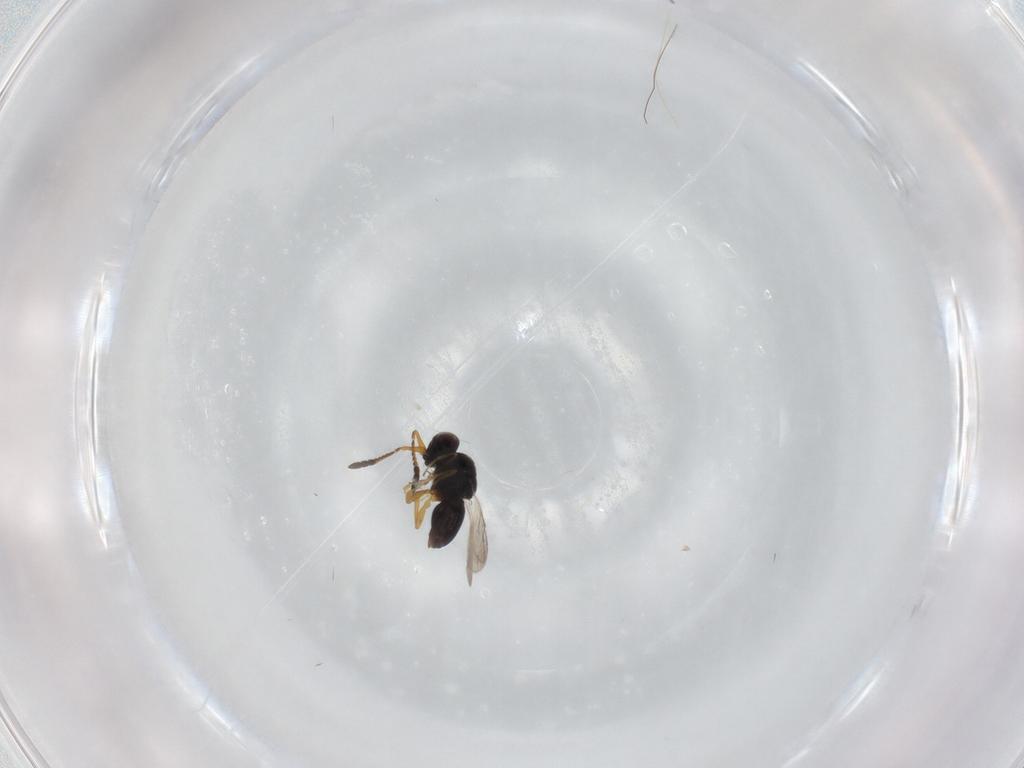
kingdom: Animalia
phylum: Arthropoda
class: Insecta
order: Hymenoptera
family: Ceraphronidae
